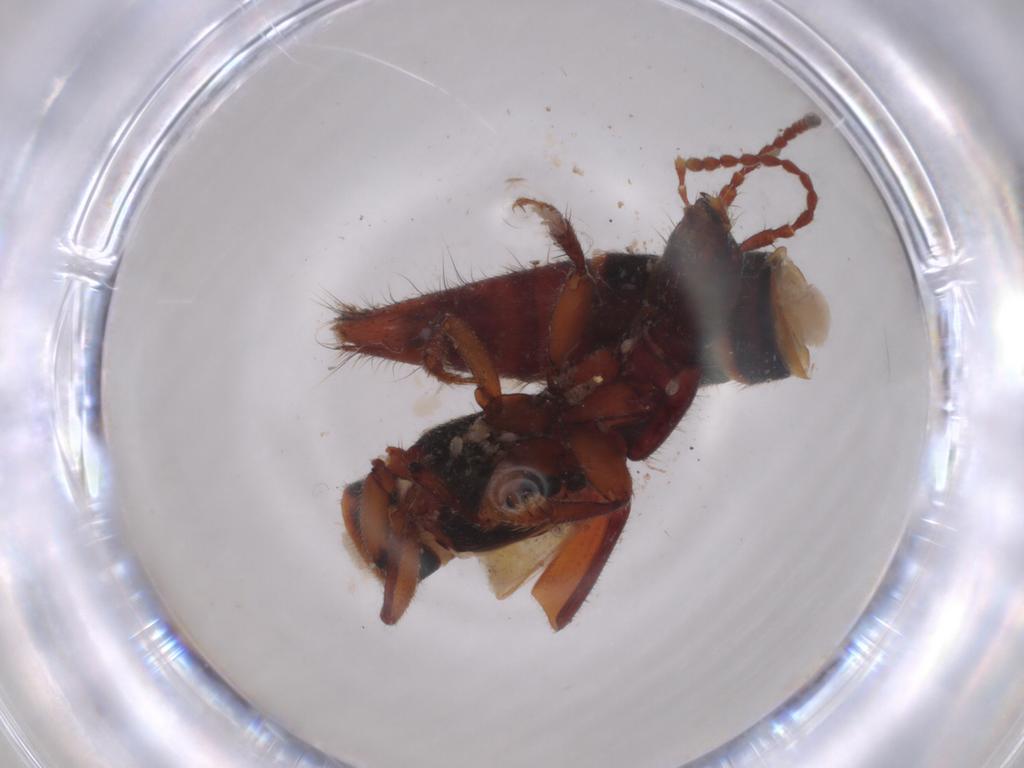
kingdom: Animalia
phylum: Arthropoda
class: Insecta
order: Coleoptera
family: Staphylinidae
